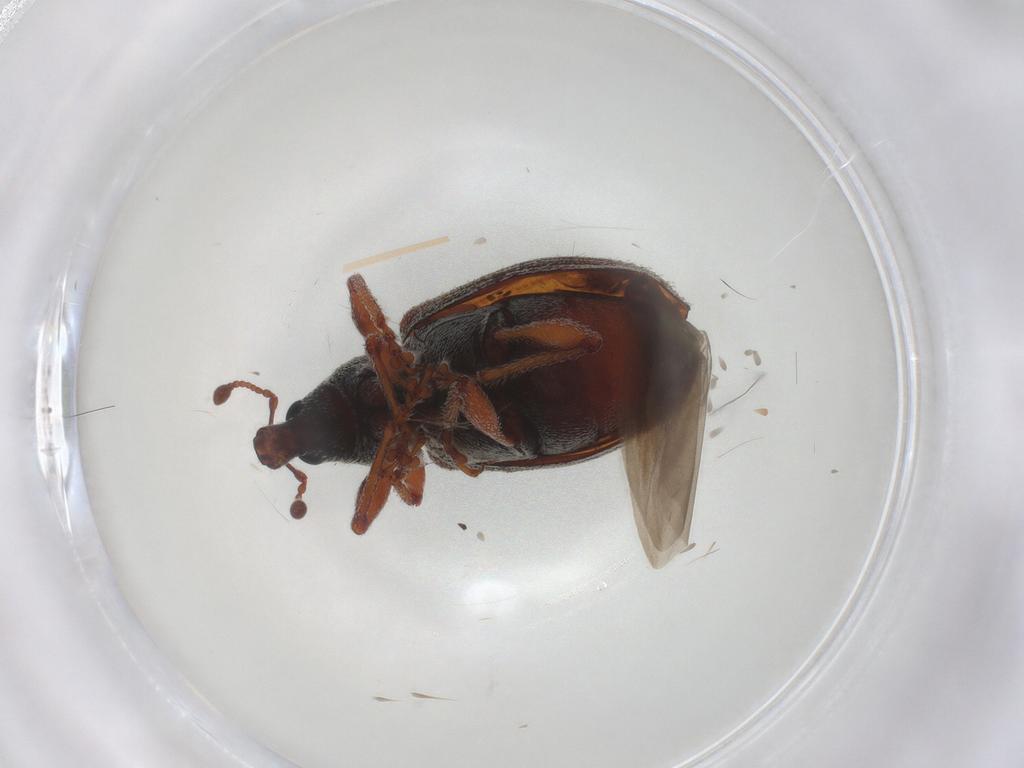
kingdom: Animalia
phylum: Arthropoda
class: Insecta
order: Coleoptera
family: Curculionidae
